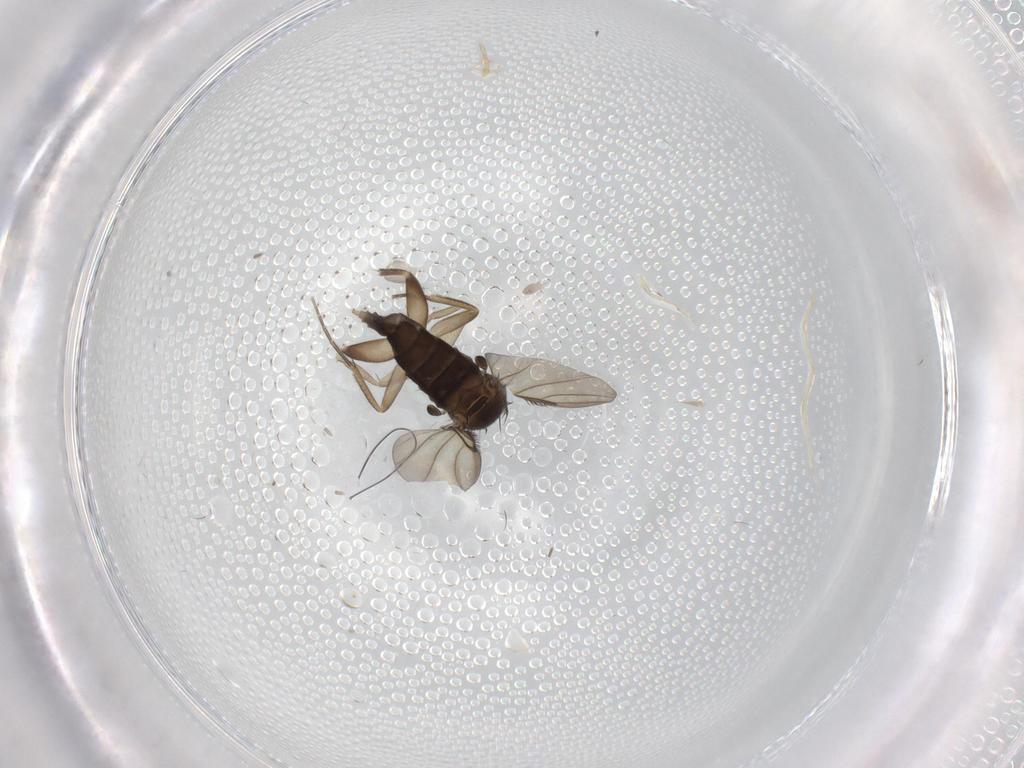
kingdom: Animalia
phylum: Arthropoda
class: Insecta
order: Diptera
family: Phoridae
